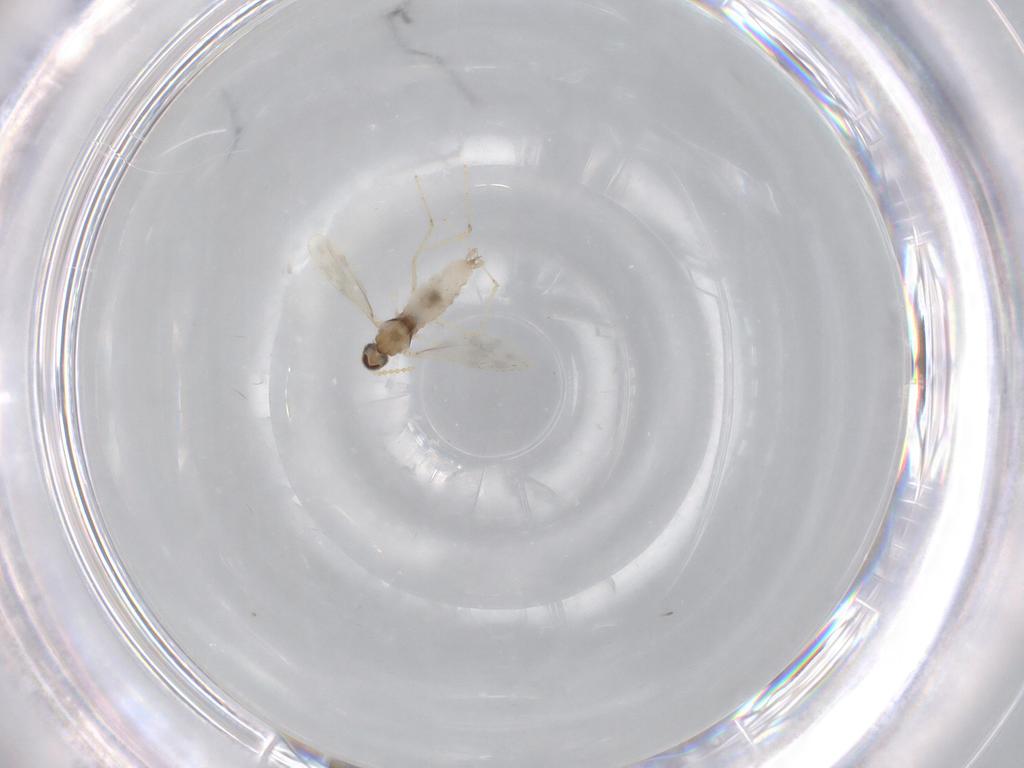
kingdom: Animalia
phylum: Arthropoda
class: Insecta
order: Diptera
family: Cecidomyiidae
